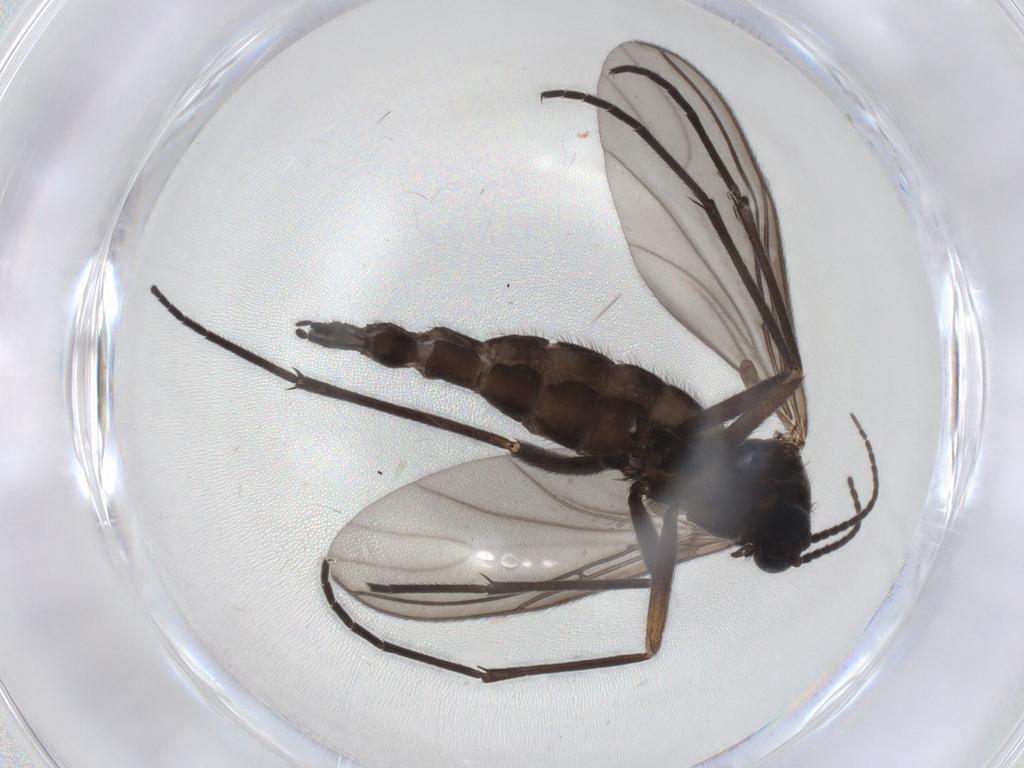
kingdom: Animalia
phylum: Arthropoda
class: Insecta
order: Diptera
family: Sciaridae
